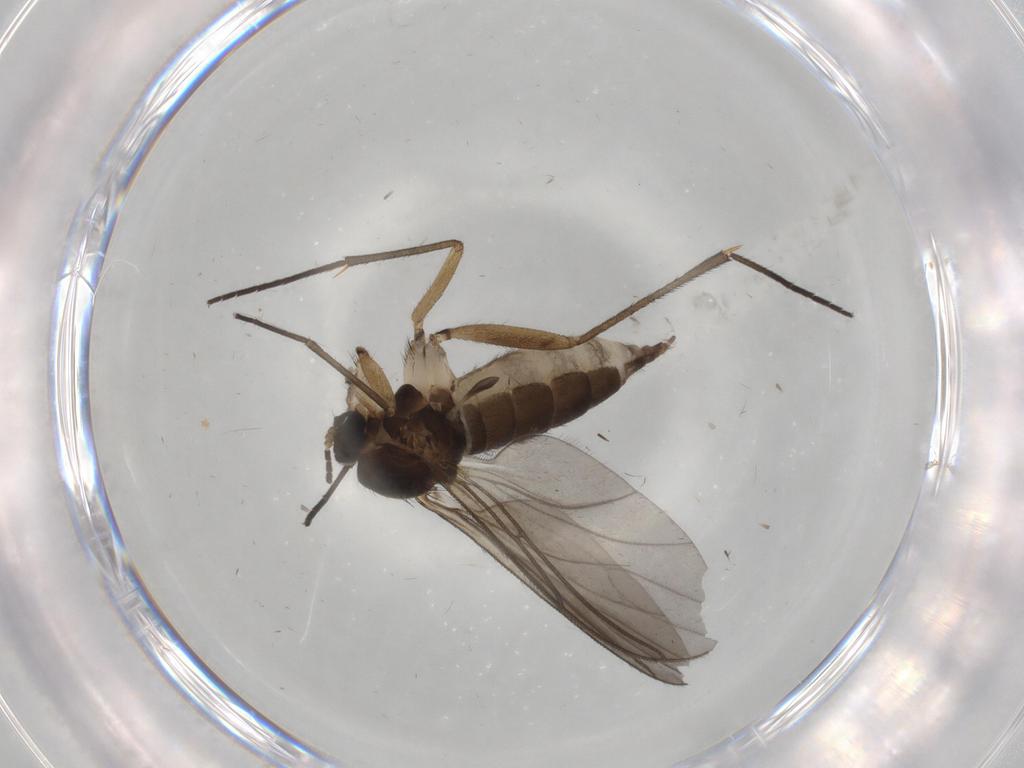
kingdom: Animalia
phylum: Arthropoda
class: Insecta
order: Diptera
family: Sciaridae
